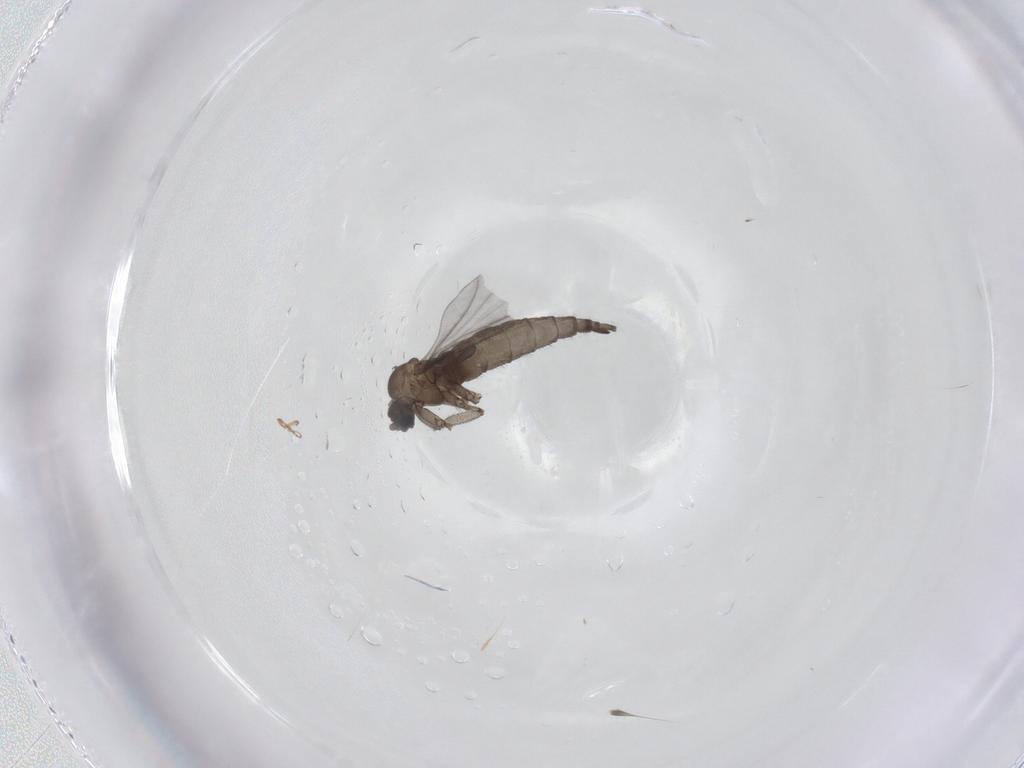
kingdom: Animalia
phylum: Arthropoda
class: Insecta
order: Diptera
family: Sciaridae
